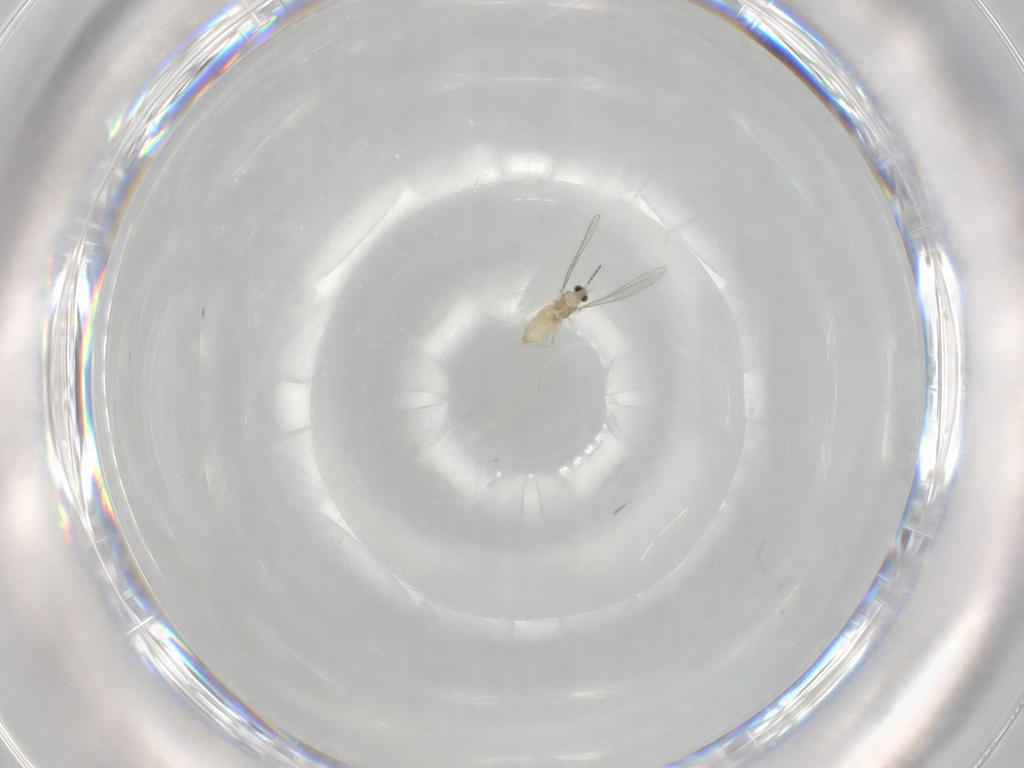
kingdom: Animalia
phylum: Arthropoda
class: Insecta
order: Diptera
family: Cecidomyiidae
